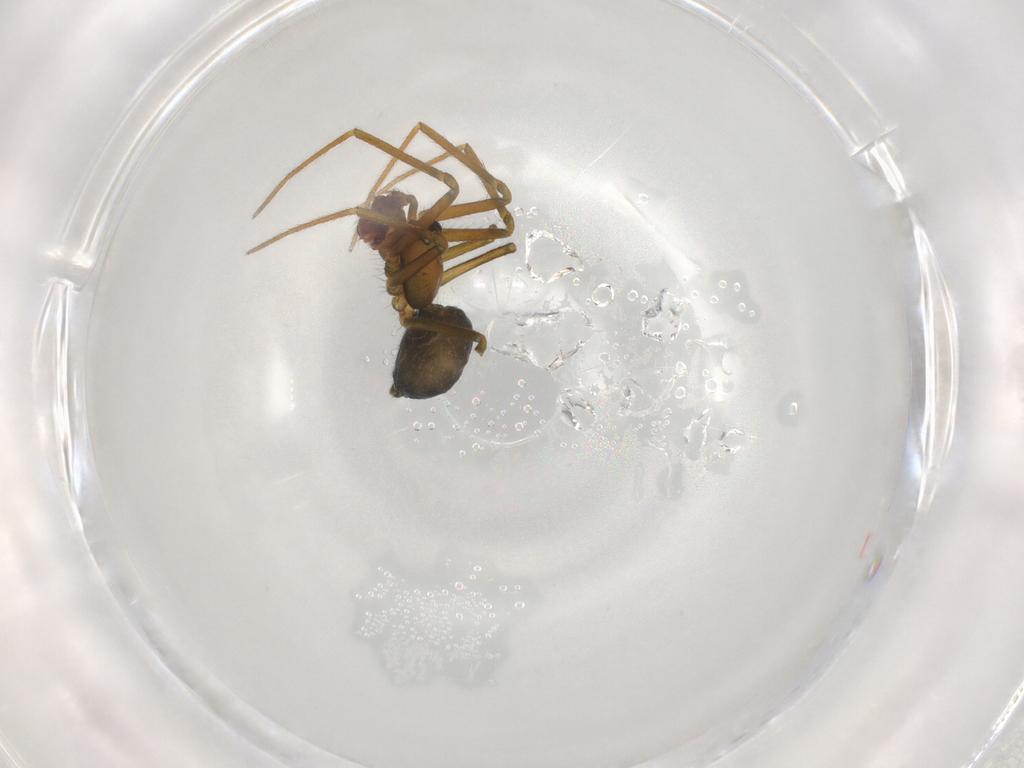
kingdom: Animalia
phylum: Arthropoda
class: Arachnida
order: Araneae
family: Linyphiidae
